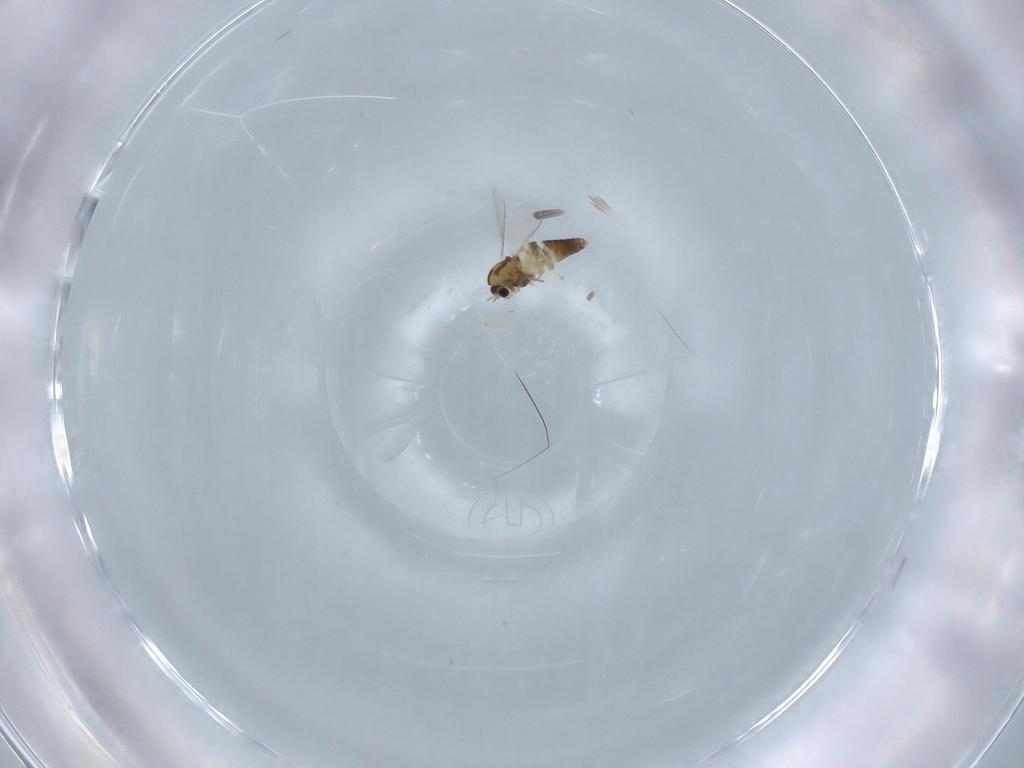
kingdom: Animalia
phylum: Arthropoda
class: Insecta
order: Diptera
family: Chironomidae
